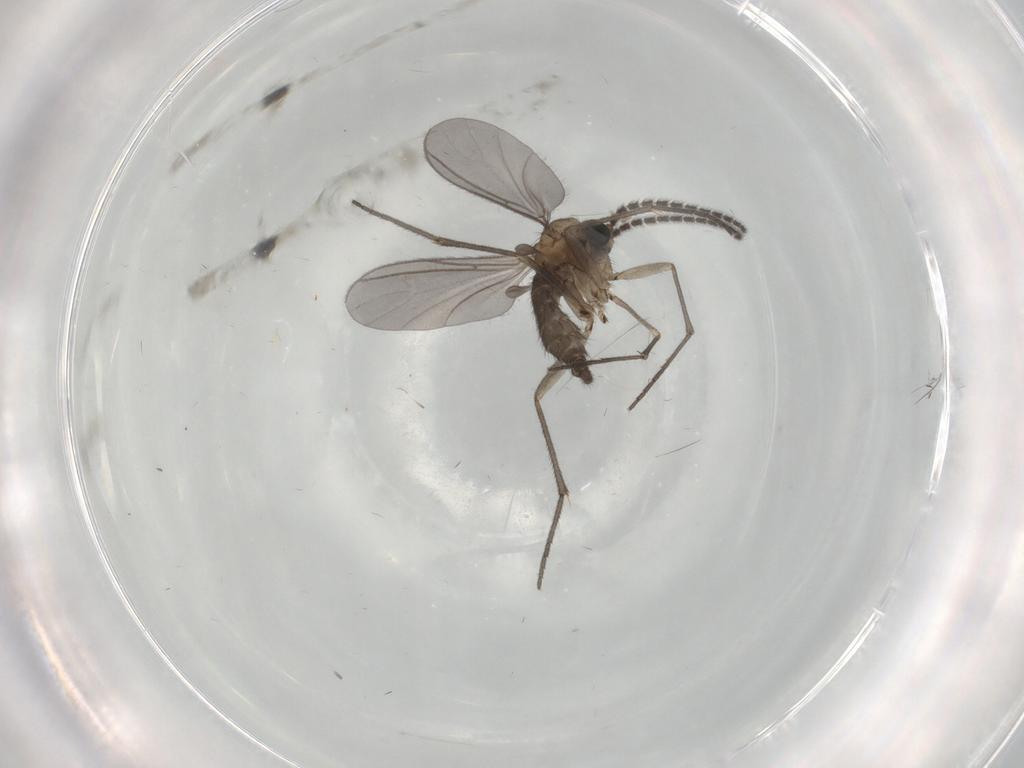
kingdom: Animalia
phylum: Arthropoda
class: Insecta
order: Diptera
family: Sciaridae
